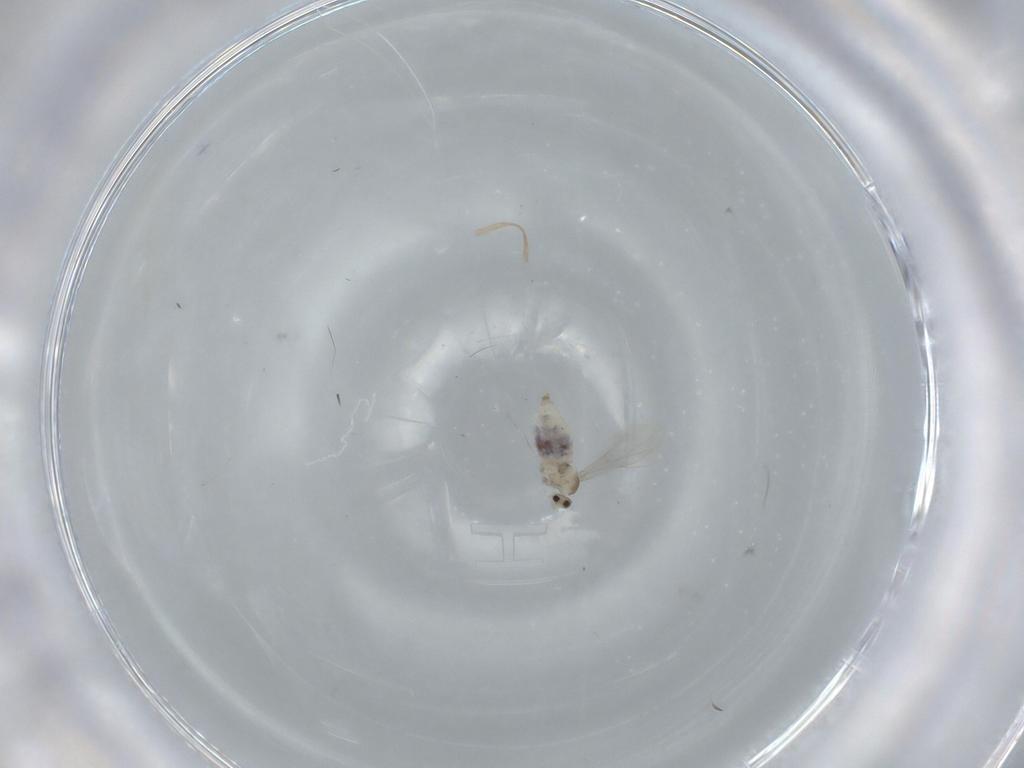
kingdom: Animalia
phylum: Arthropoda
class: Insecta
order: Diptera
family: Cecidomyiidae
